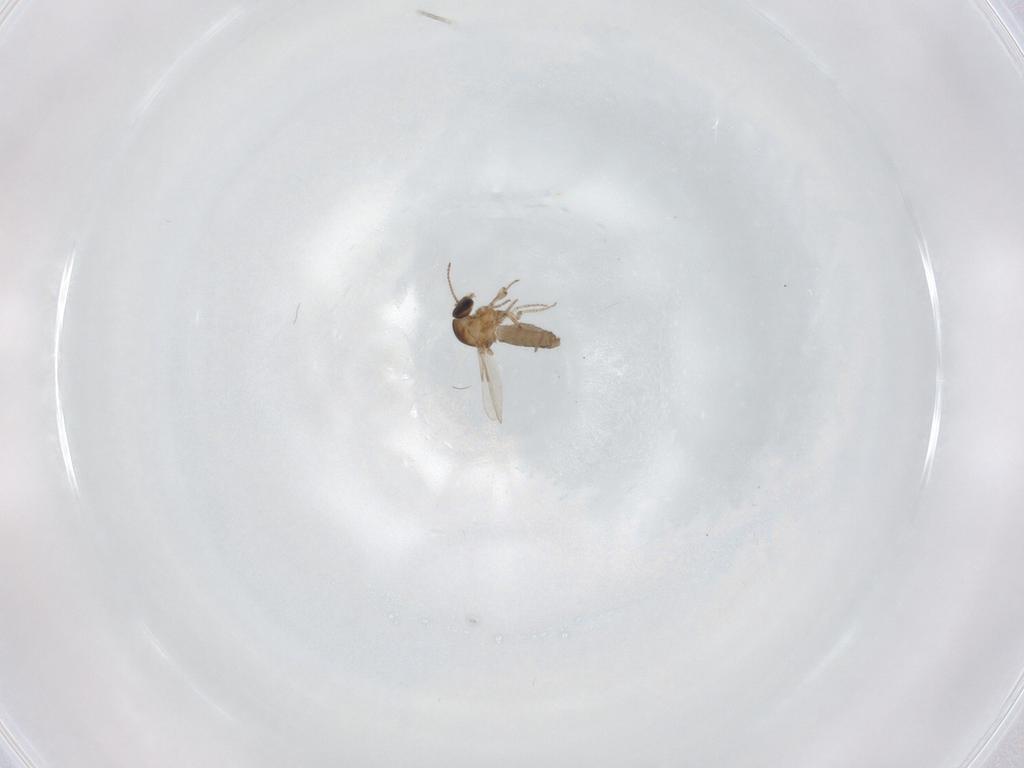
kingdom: Animalia
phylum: Arthropoda
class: Insecta
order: Diptera
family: Ceratopogonidae
